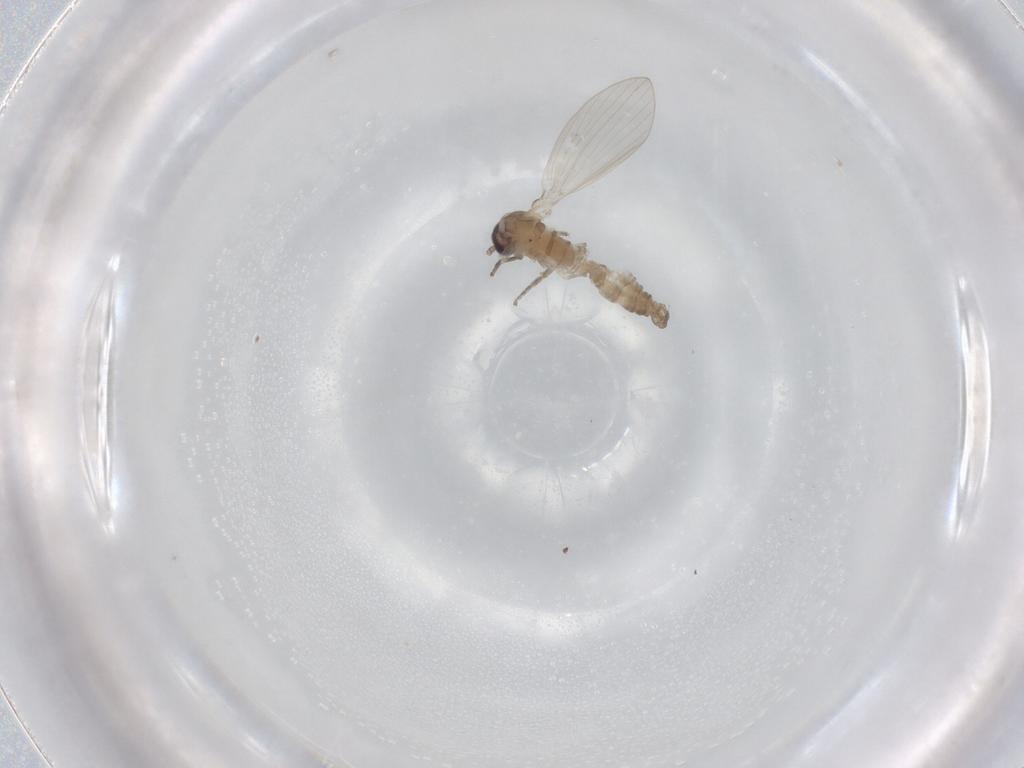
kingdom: Animalia
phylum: Arthropoda
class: Insecta
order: Diptera
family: Psychodidae
